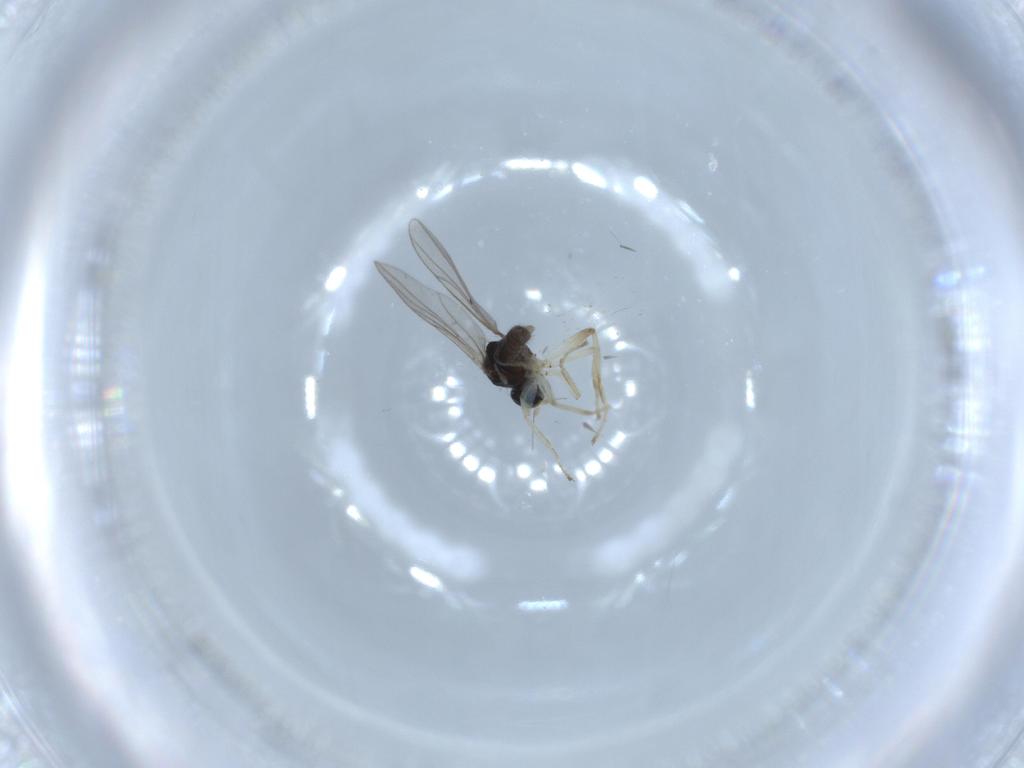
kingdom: Animalia
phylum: Arthropoda
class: Insecta
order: Diptera
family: Hybotidae
